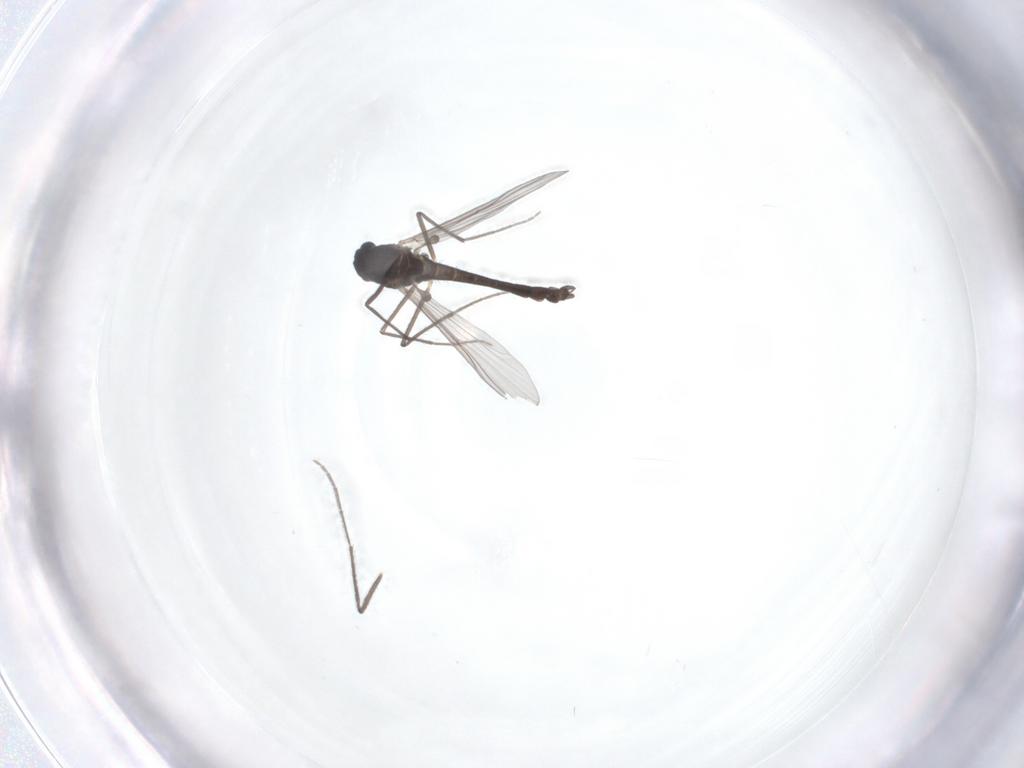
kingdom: Animalia
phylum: Arthropoda
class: Insecta
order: Diptera
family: Chironomidae
